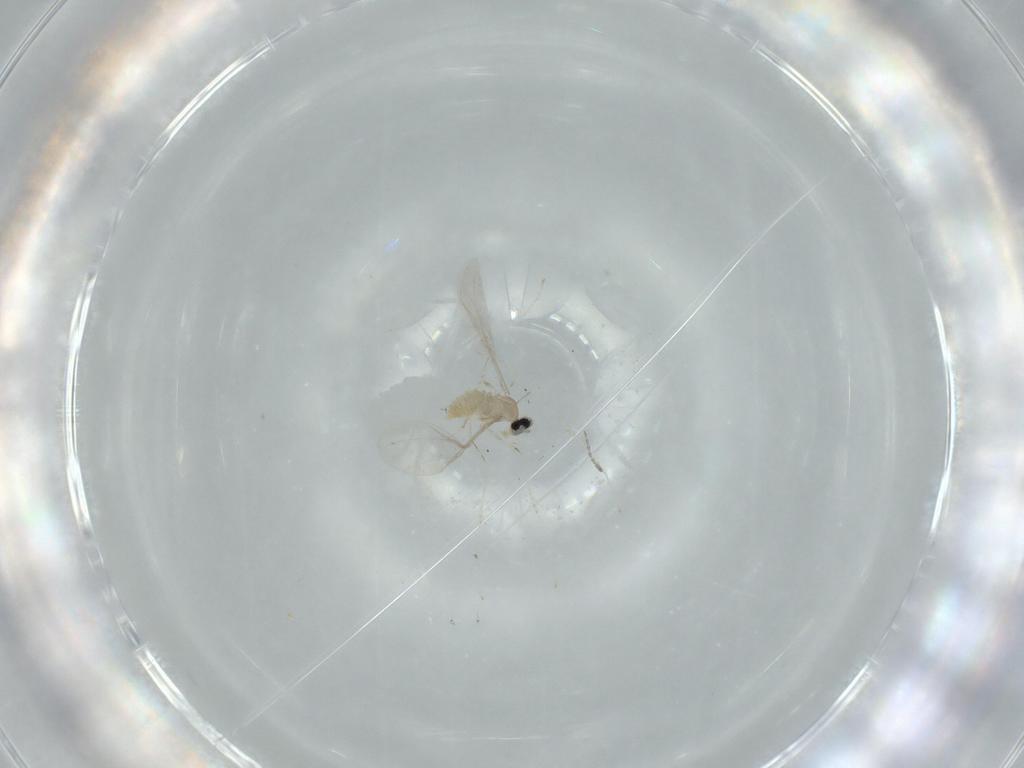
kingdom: Animalia
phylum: Arthropoda
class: Insecta
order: Diptera
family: Cecidomyiidae
